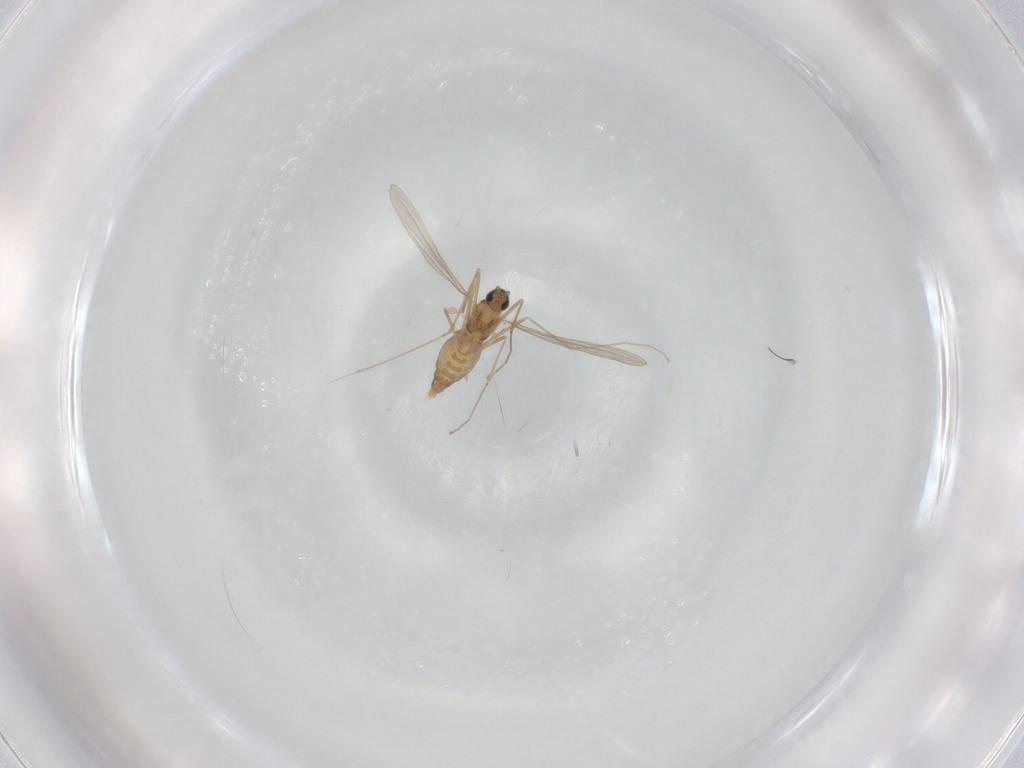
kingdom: Animalia
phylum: Arthropoda
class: Insecta
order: Diptera
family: Cecidomyiidae
